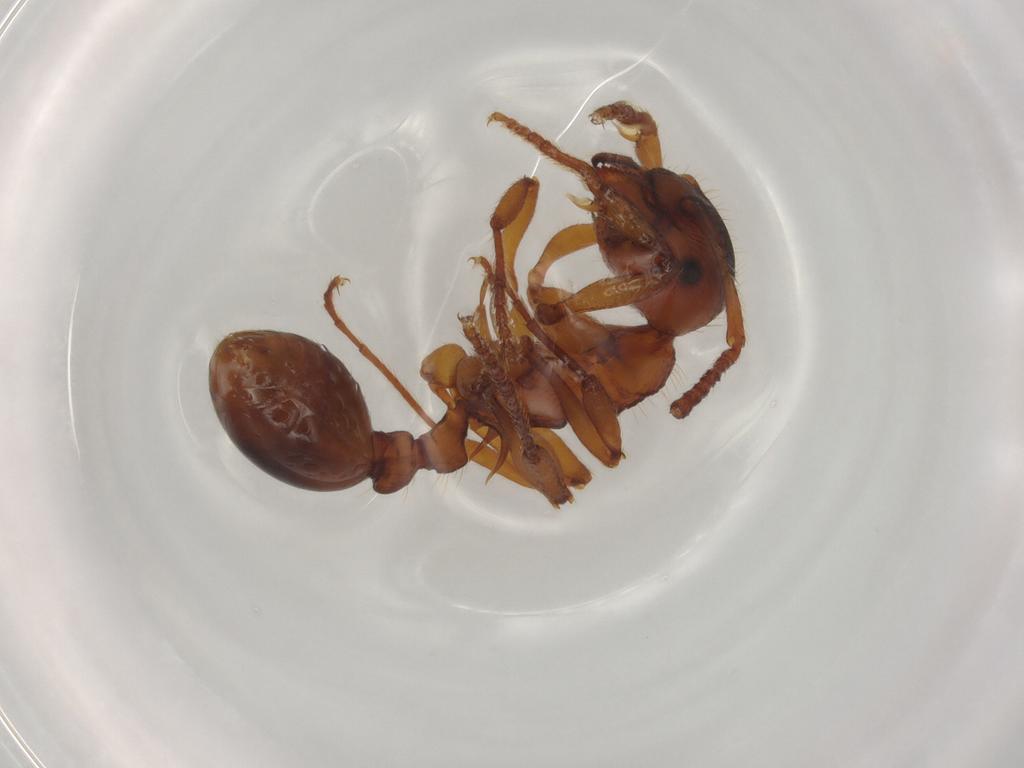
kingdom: Animalia
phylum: Arthropoda
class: Insecta
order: Hymenoptera
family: Formicidae
